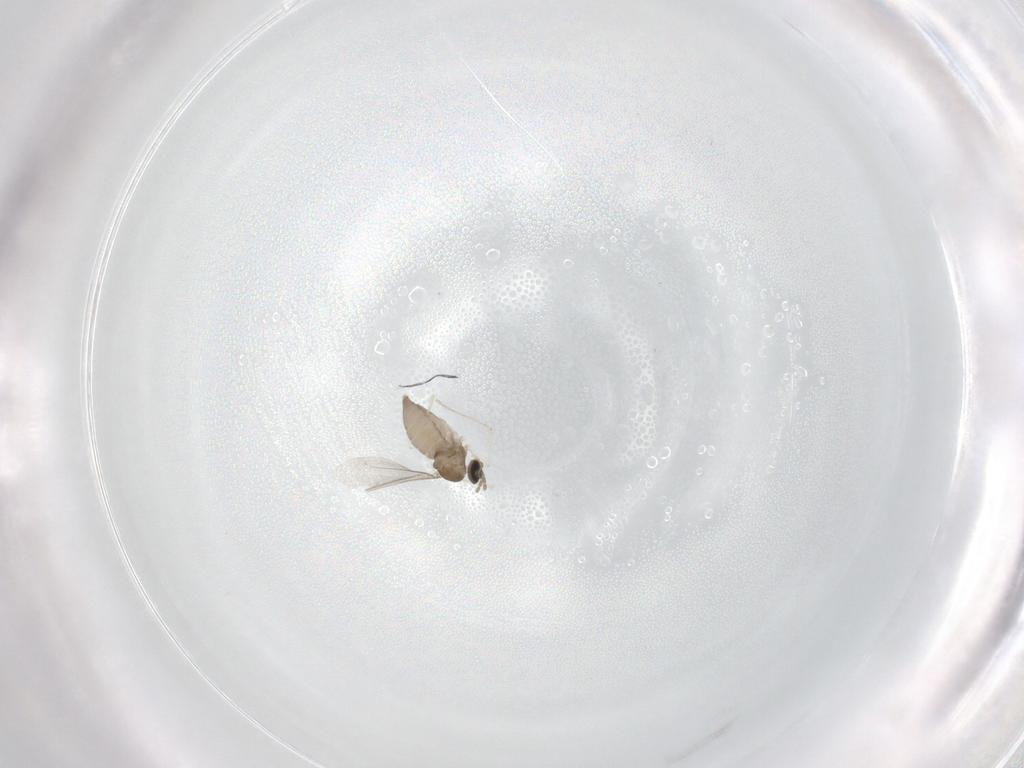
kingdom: Animalia
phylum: Arthropoda
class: Insecta
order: Diptera
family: Cecidomyiidae
